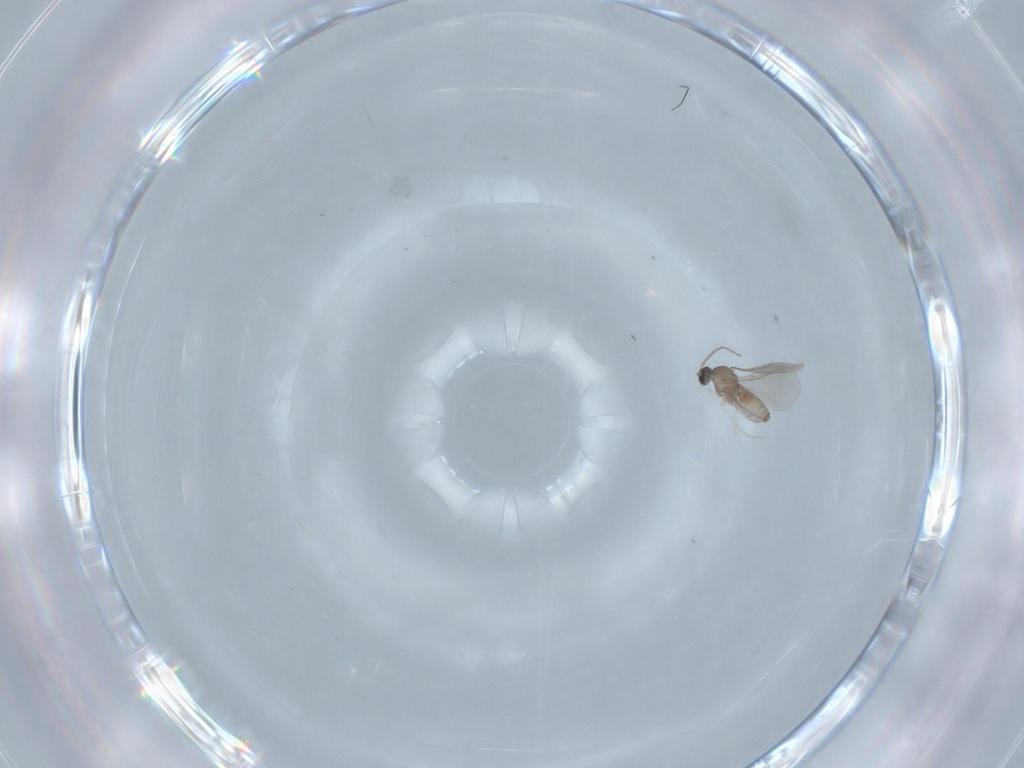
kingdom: Animalia
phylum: Arthropoda
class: Insecta
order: Diptera
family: Cecidomyiidae
